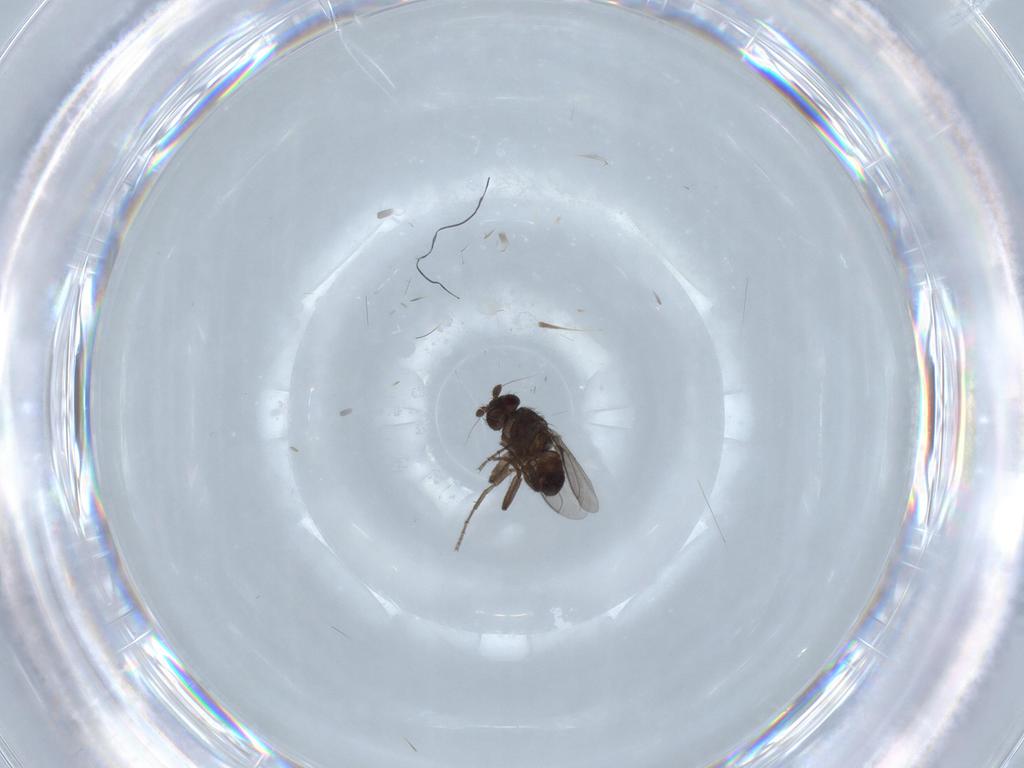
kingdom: Animalia
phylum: Arthropoda
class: Insecta
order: Diptera
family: Sciaridae
